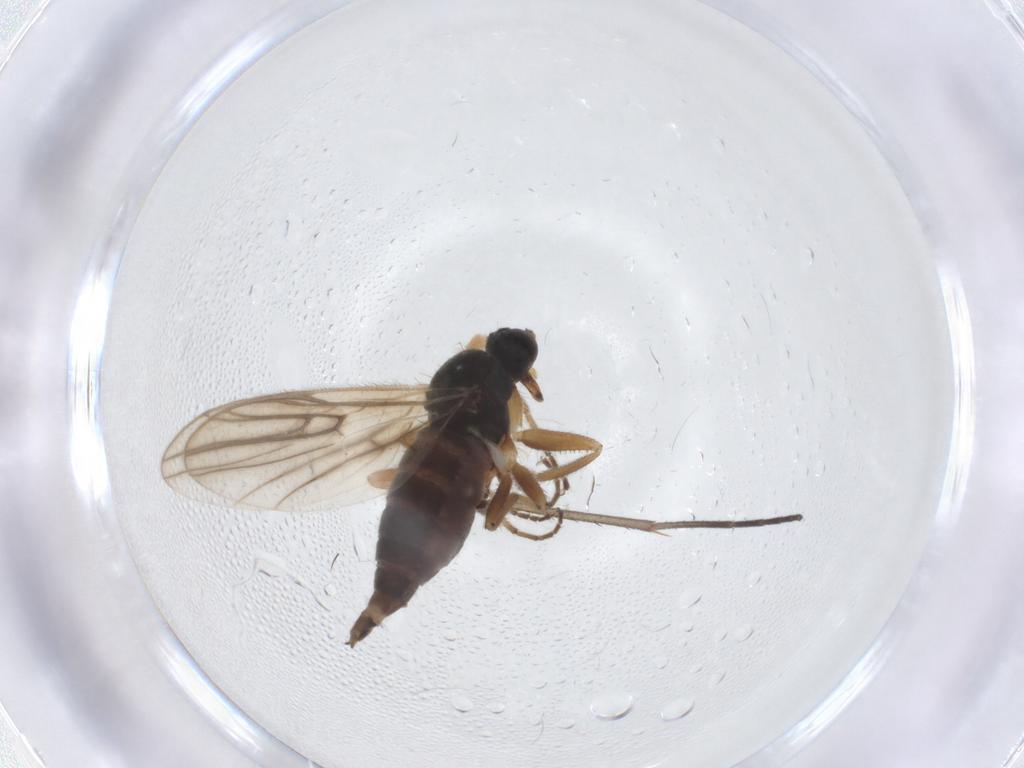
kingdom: Animalia
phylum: Arthropoda
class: Insecta
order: Diptera
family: Hybotidae
